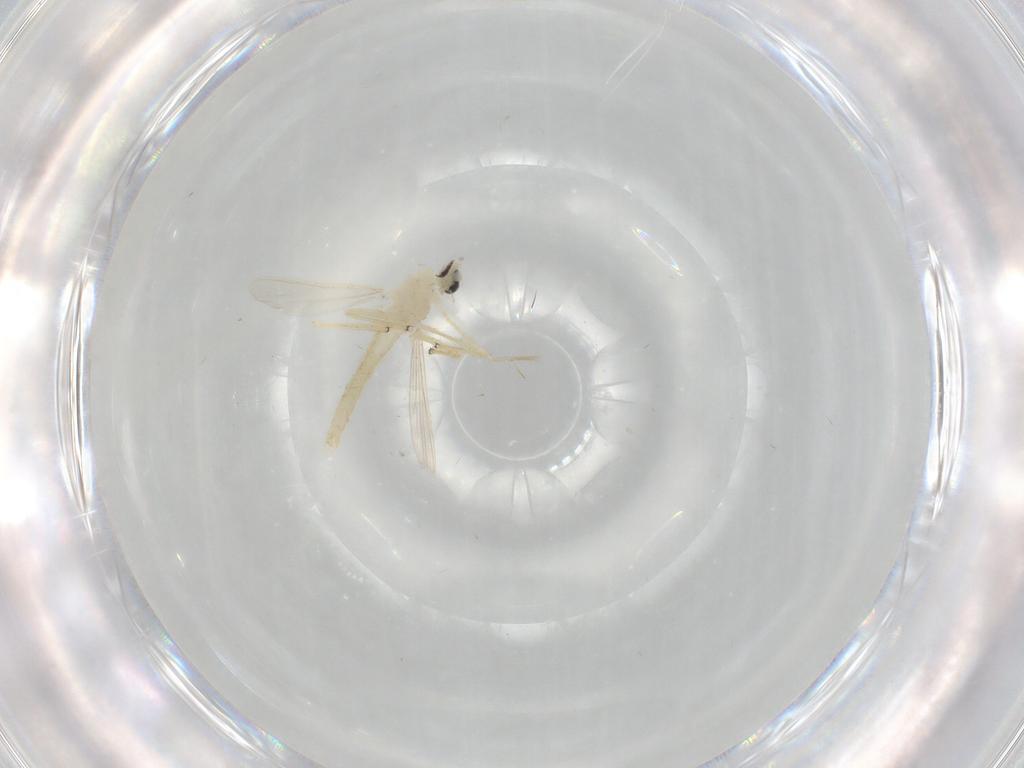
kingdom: Animalia
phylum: Arthropoda
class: Insecta
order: Diptera
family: Chironomidae
